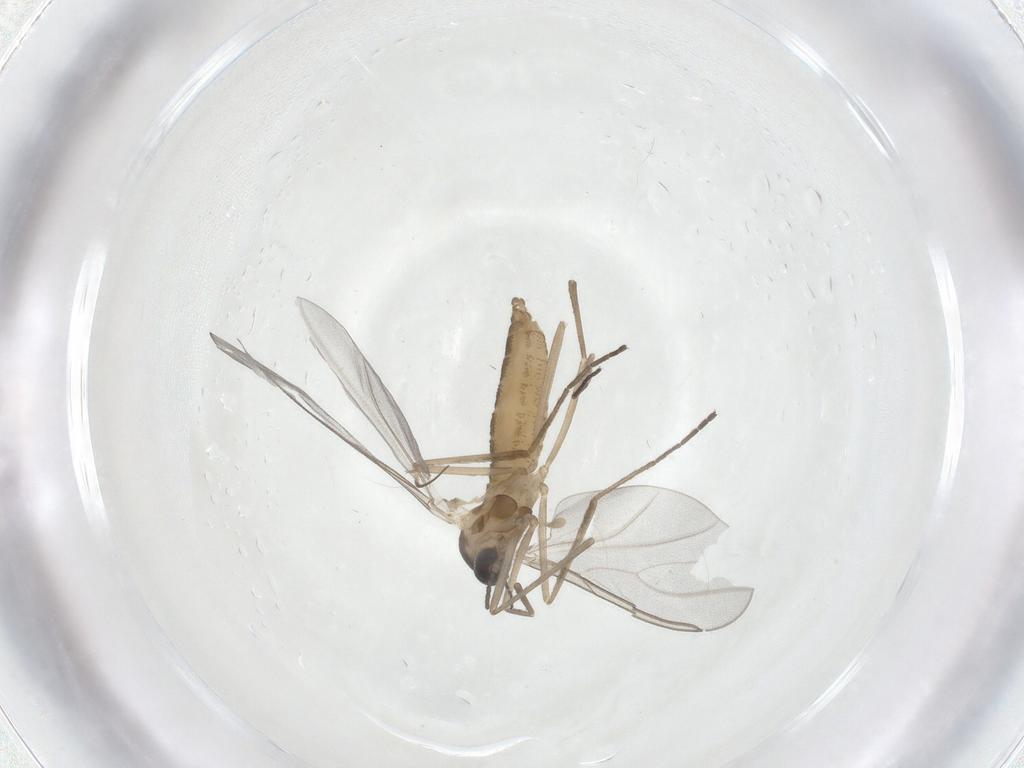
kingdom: Animalia
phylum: Arthropoda
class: Insecta
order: Diptera
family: Cecidomyiidae
